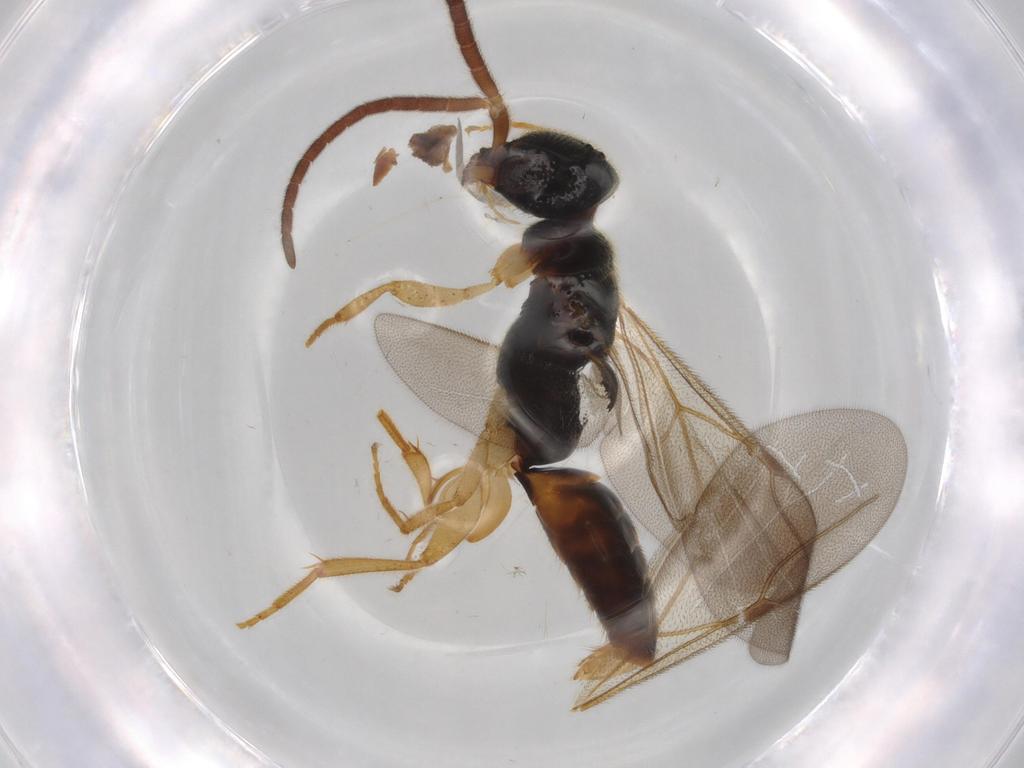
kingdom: Animalia
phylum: Arthropoda
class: Insecta
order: Hymenoptera
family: Bethylidae
